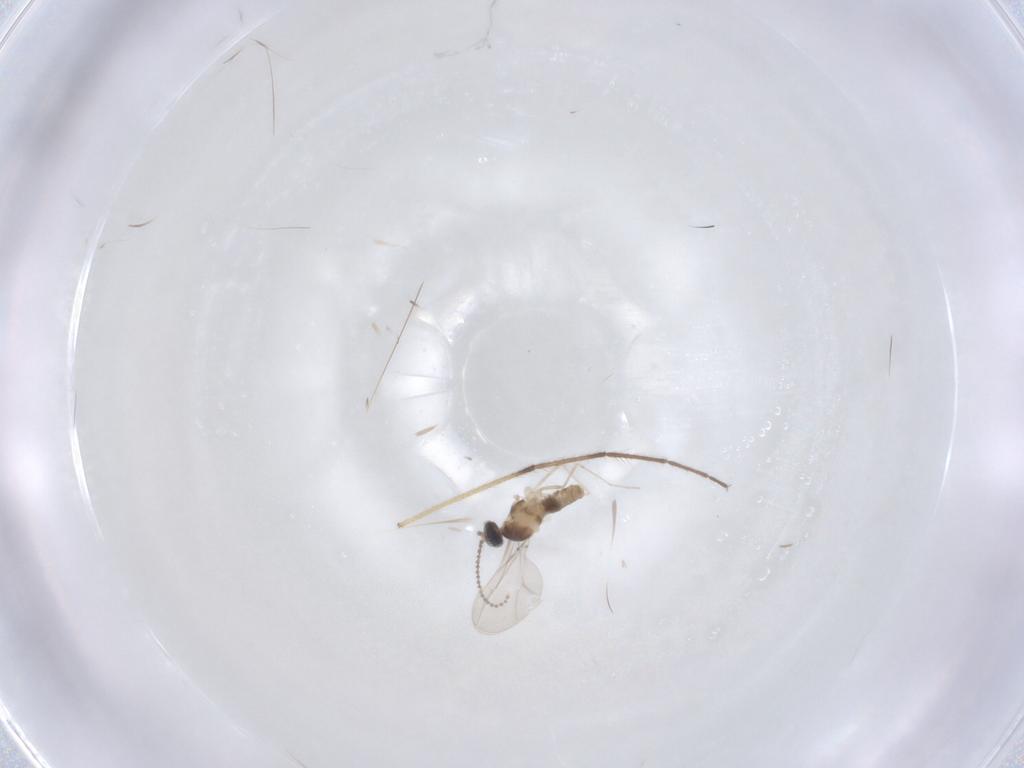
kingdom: Animalia
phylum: Arthropoda
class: Insecta
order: Diptera
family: Cecidomyiidae
